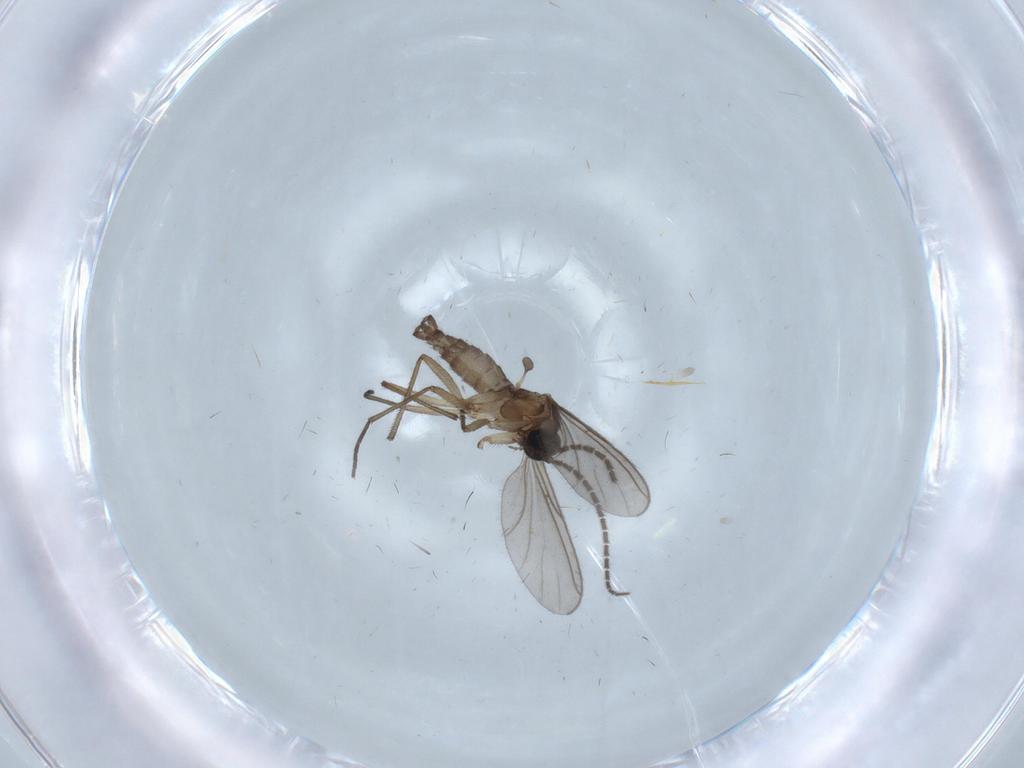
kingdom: Animalia
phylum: Arthropoda
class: Insecta
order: Diptera
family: Sciaridae
